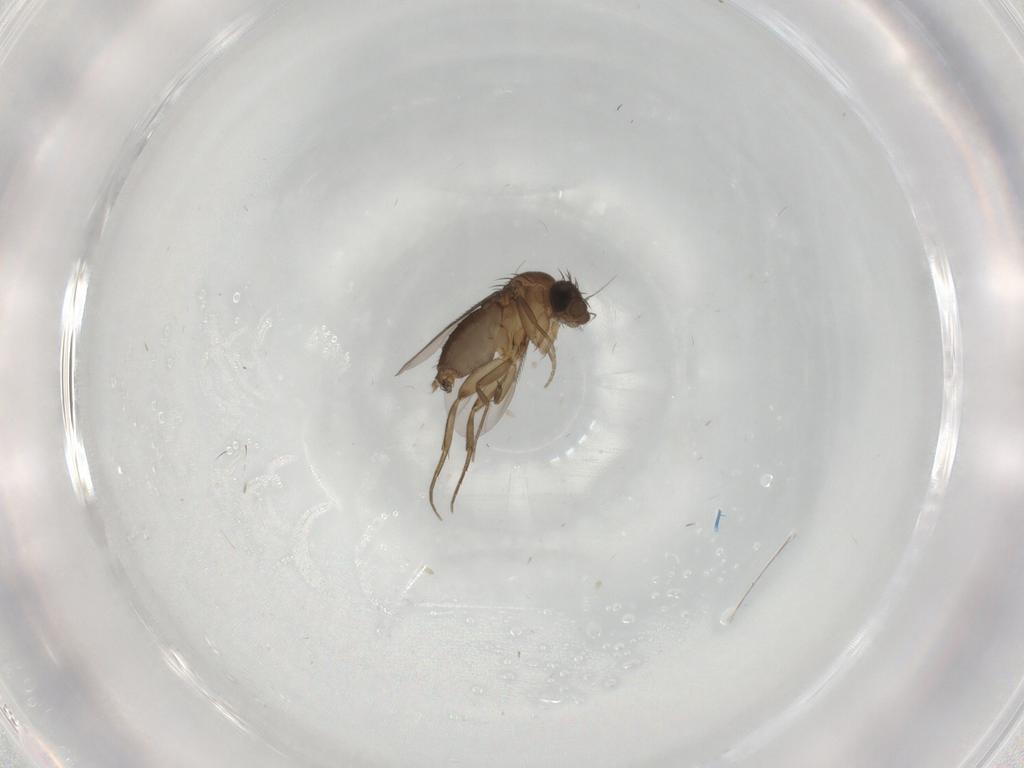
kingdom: Animalia
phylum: Arthropoda
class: Insecta
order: Diptera
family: Phoridae
